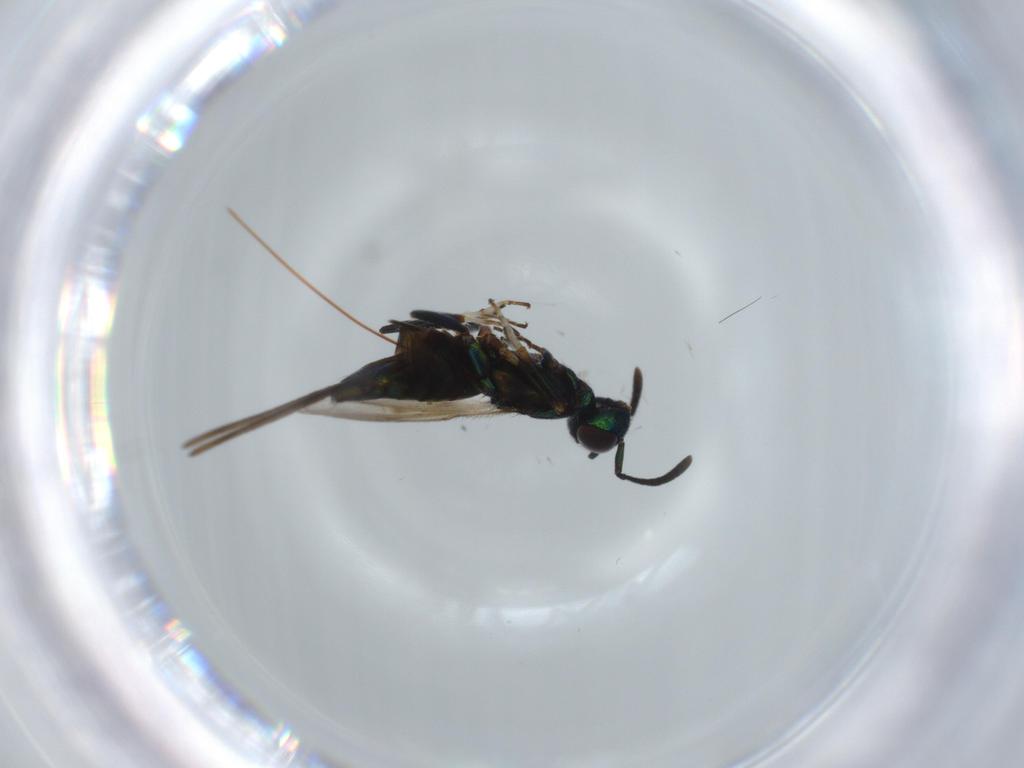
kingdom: Animalia
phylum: Arthropoda
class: Insecta
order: Hymenoptera
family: Eupelmidae
